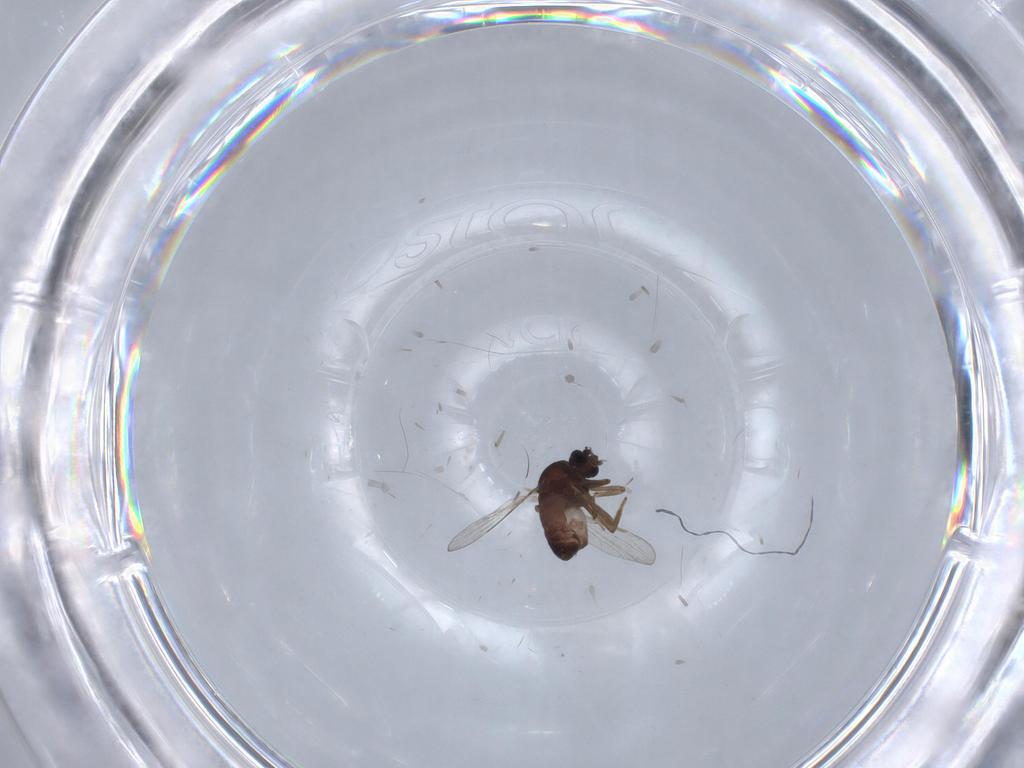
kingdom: Animalia
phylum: Arthropoda
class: Insecta
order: Diptera
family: Ceratopogonidae
